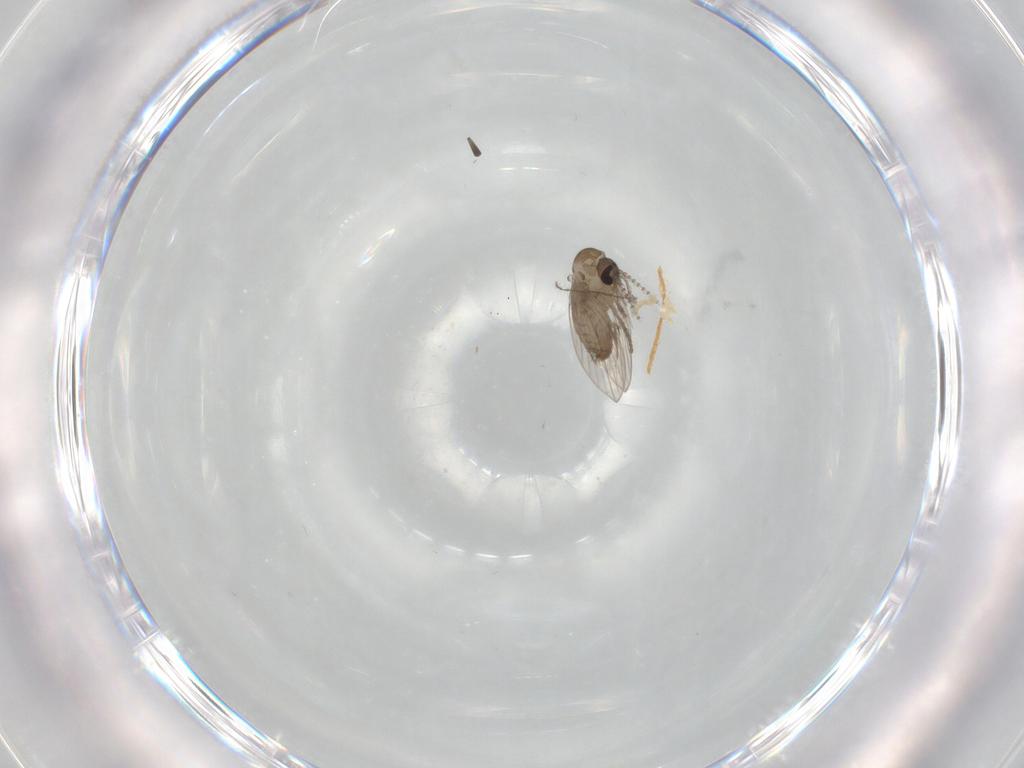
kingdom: Animalia
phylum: Arthropoda
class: Insecta
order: Diptera
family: Psychodidae
